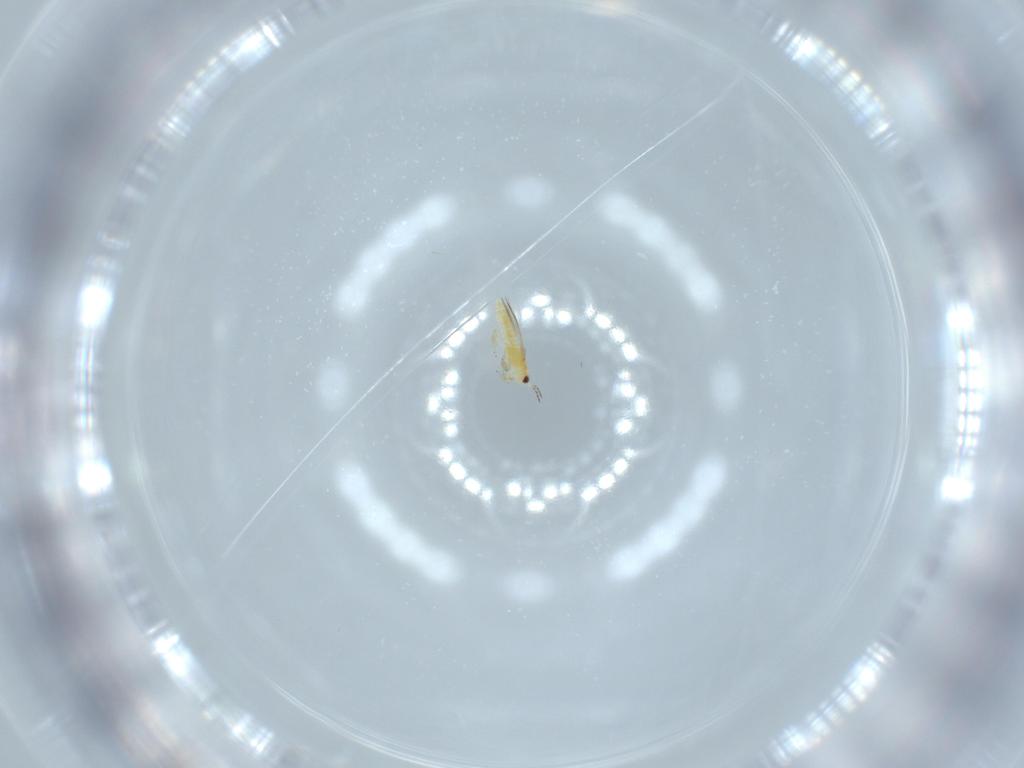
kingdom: Animalia
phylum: Arthropoda
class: Insecta
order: Thysanoptera
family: Thripidae
